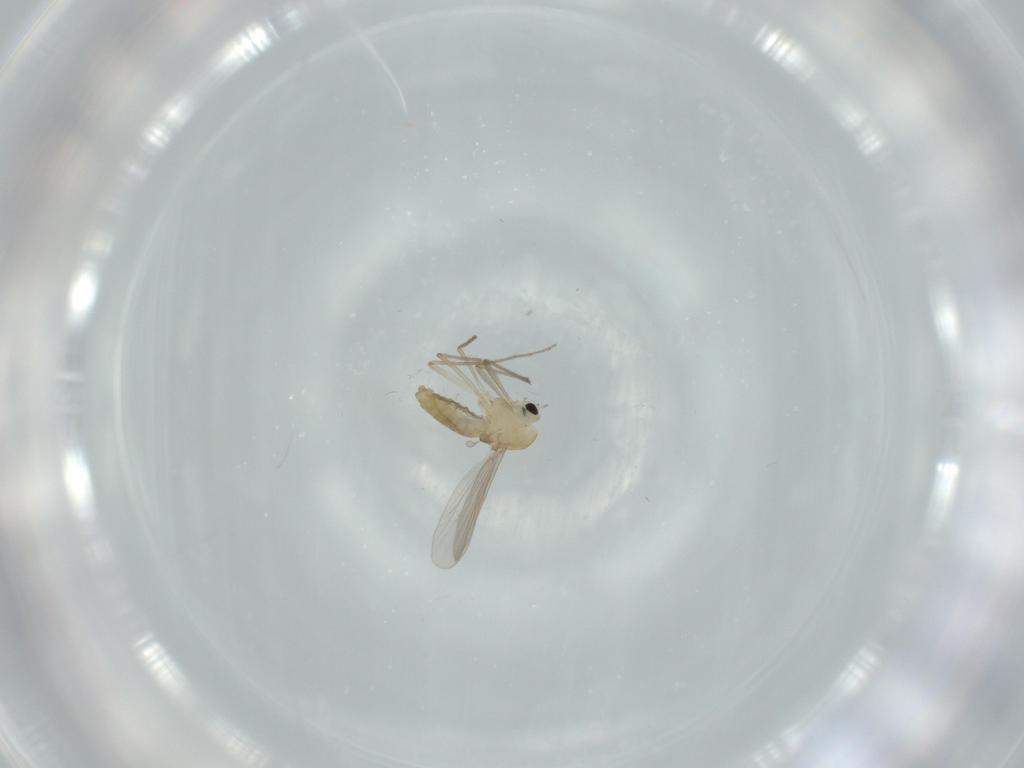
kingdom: Animalia
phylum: Arthropoda
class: Insecta
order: Diptera
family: Chironomidae
